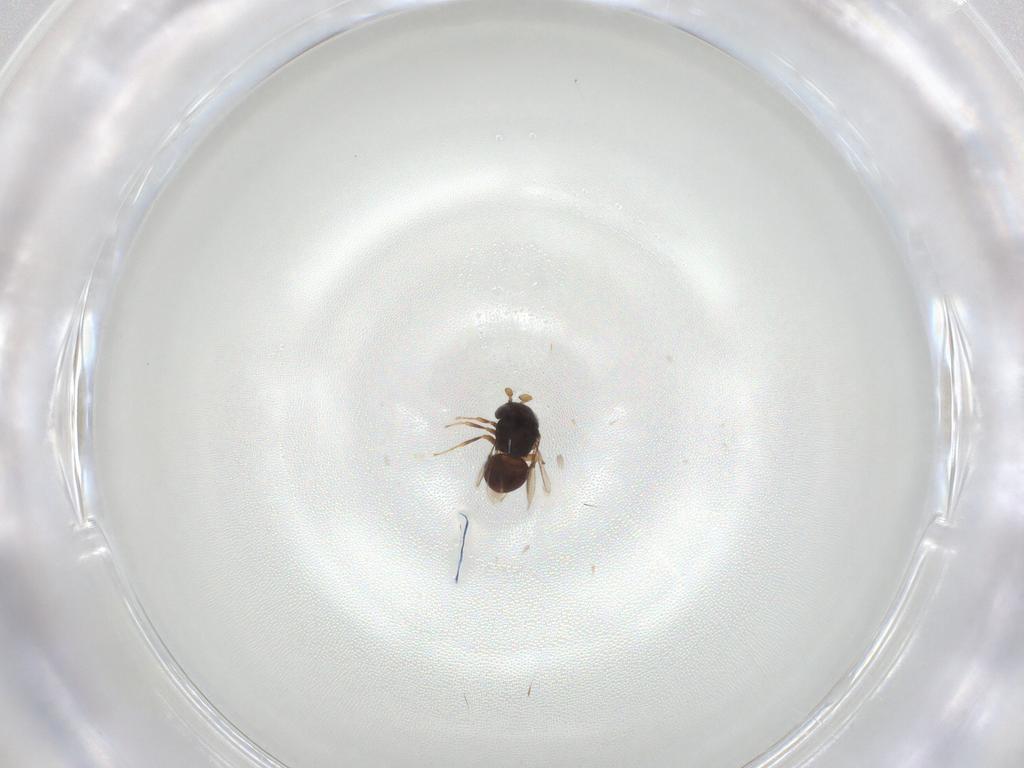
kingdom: Animalia
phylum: Arthropoda
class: Insecta
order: Hymenoptera
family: Scelionidae
